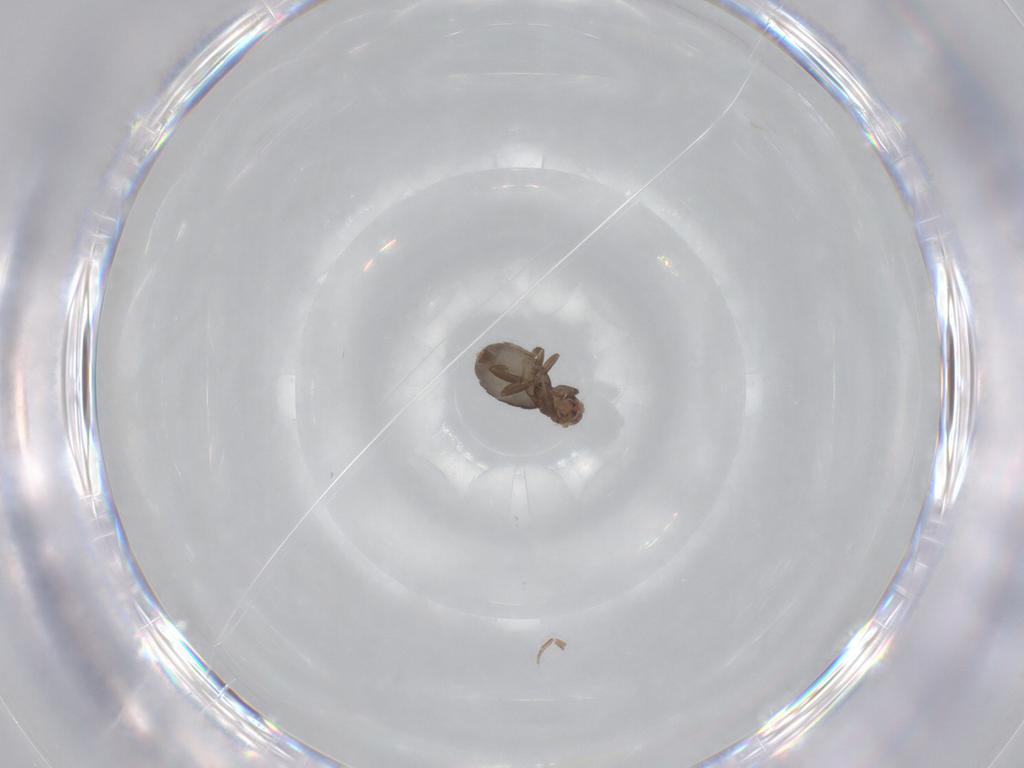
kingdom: Animalia
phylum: Arthropoda
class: Insecta
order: Diptera
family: Phoridae
